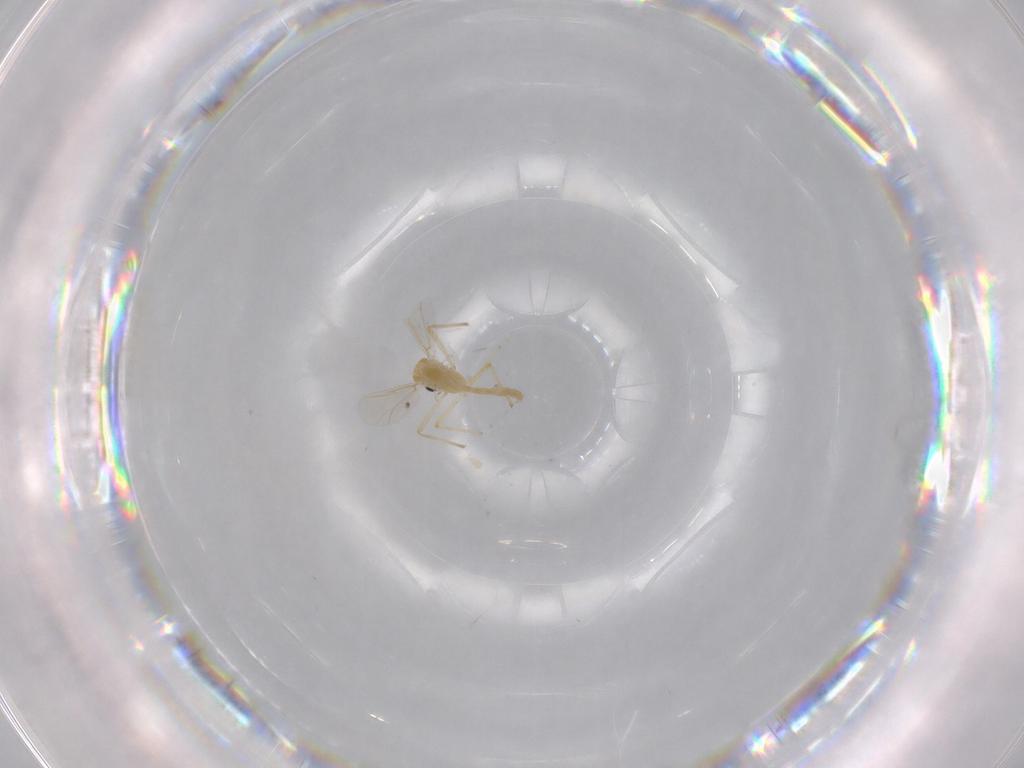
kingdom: Animalia
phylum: Arthropoda
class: Insecta
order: Diptera
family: Chironomidae
